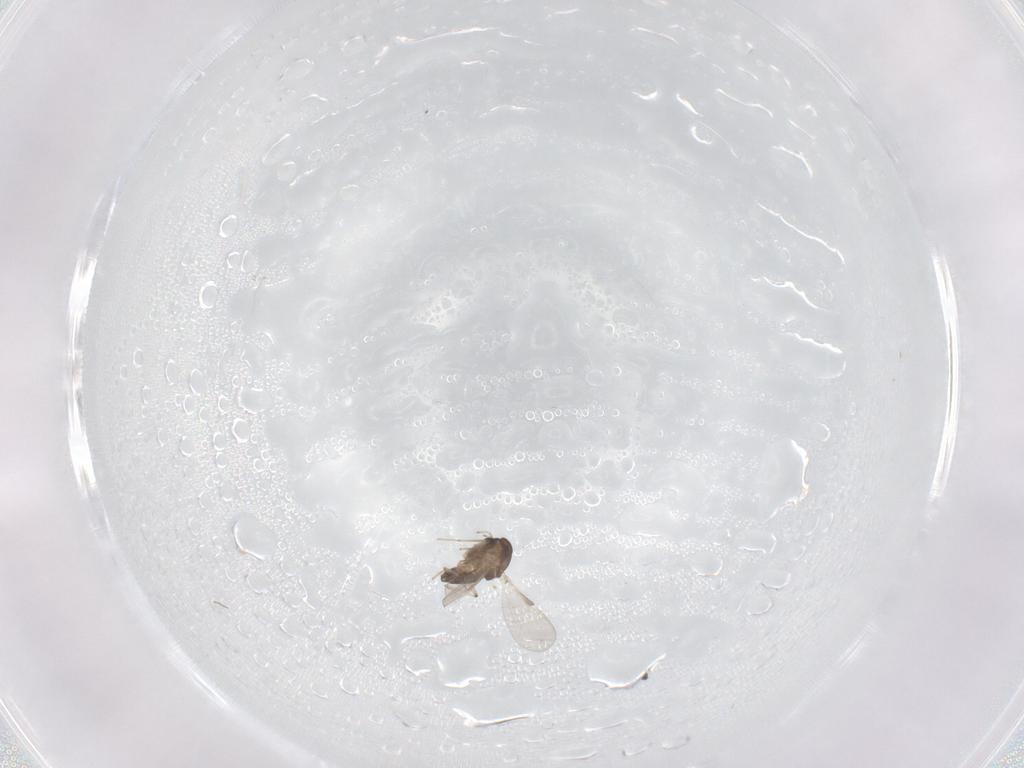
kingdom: Animalia
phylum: Arthropoda
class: Insecta
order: Diptera
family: Chironomidae
